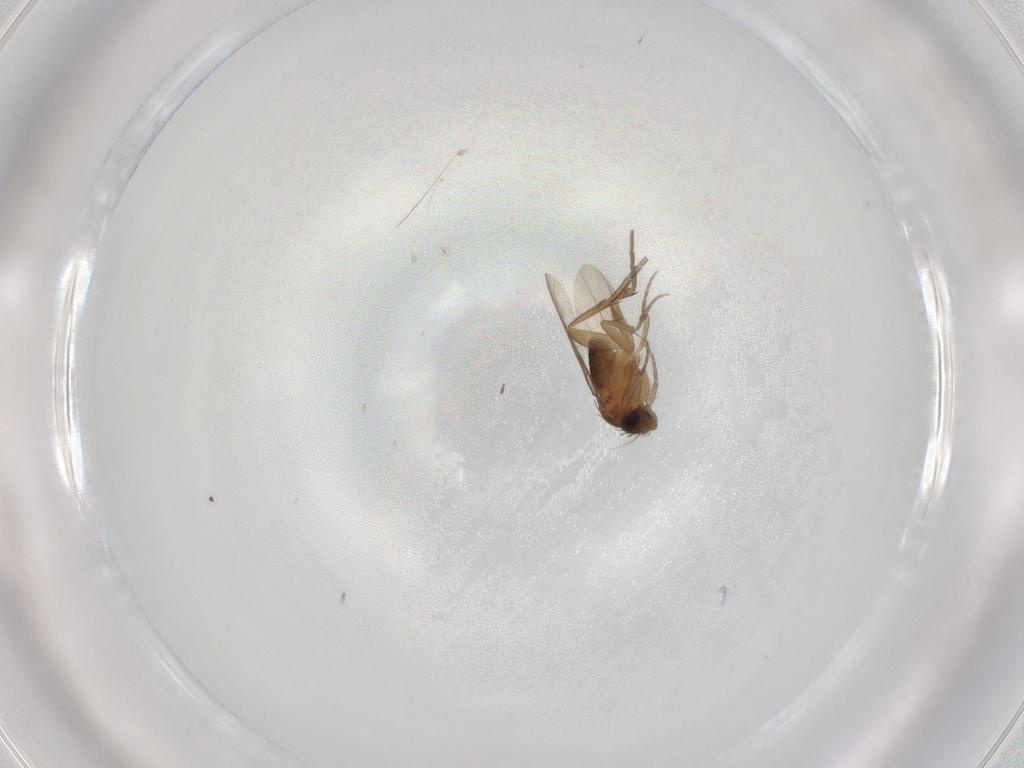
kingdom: Animalia
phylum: Arthropoda
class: Insecta
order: Diptera
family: Phoridae
